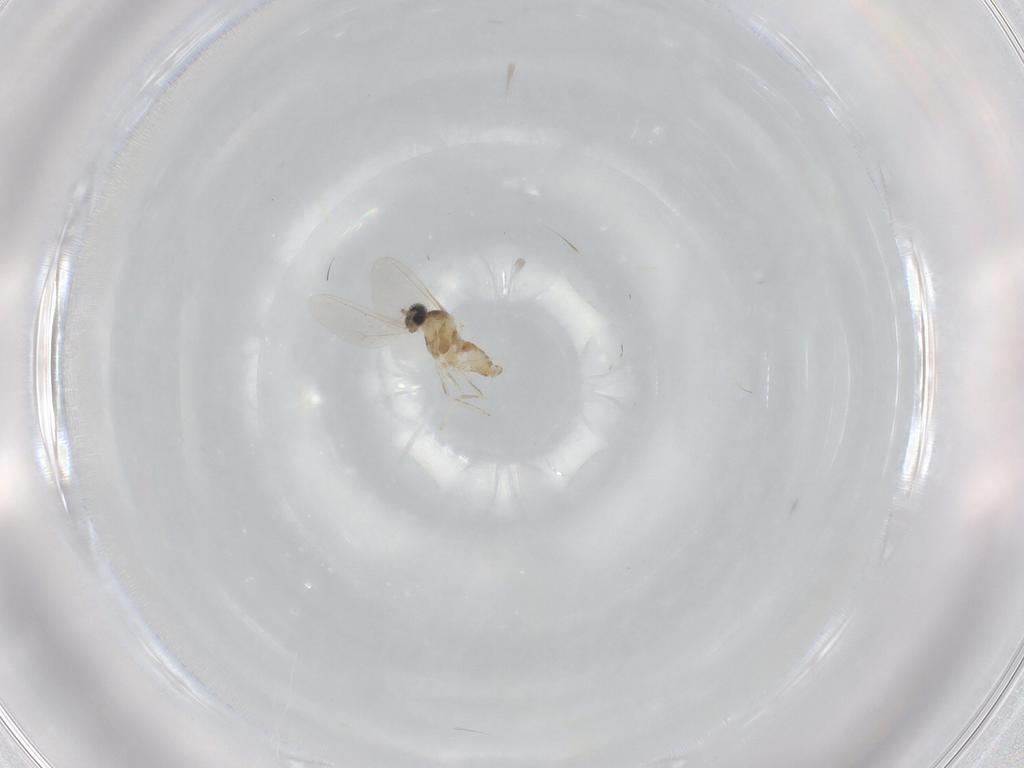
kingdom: Animalia
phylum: Arthropoda
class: Insecta
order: Diptera
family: Cecidomyiidae
